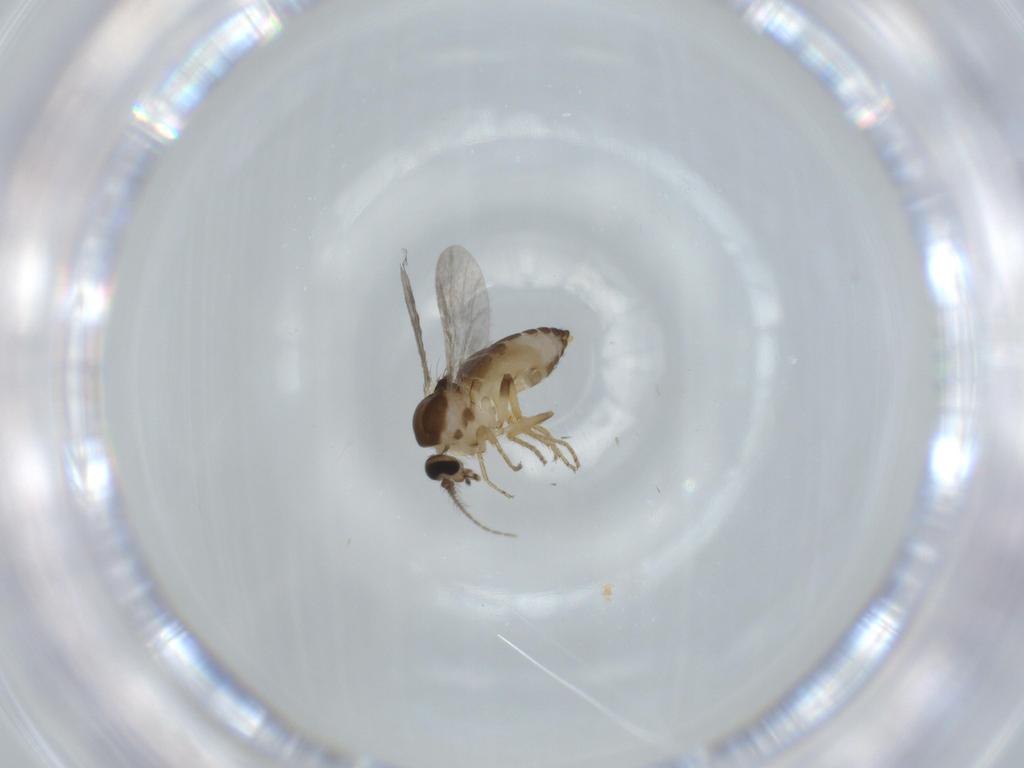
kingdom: Animalia
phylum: Arthropoda
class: Insecta
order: Diptera
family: Ceratopogonidae
